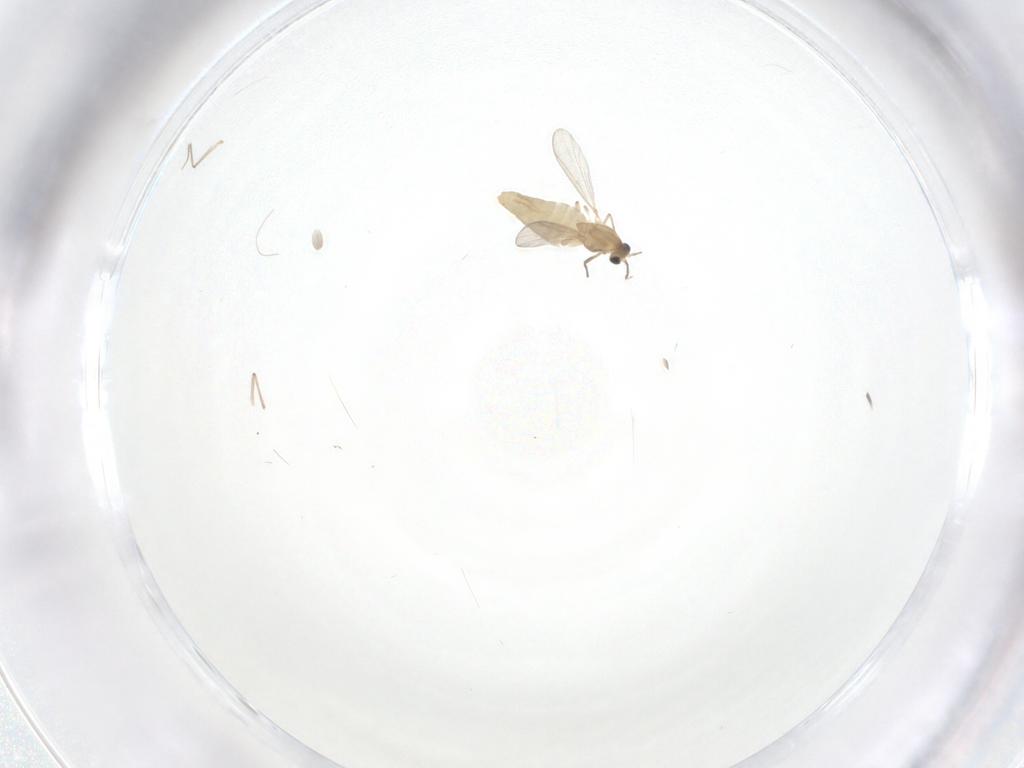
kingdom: Animalia
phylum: Arthropoda
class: Insecta
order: Diptera
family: Chironomidae
